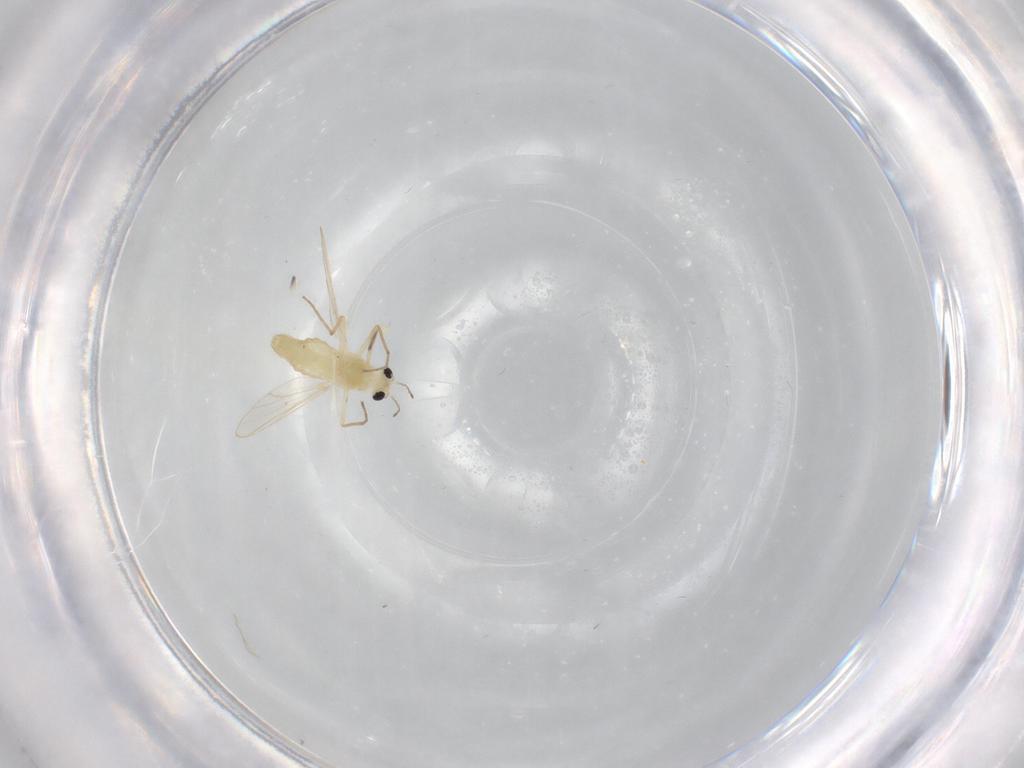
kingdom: Animalia
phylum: Arthropoda
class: Insecta
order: Diptera
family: Chironomidae
